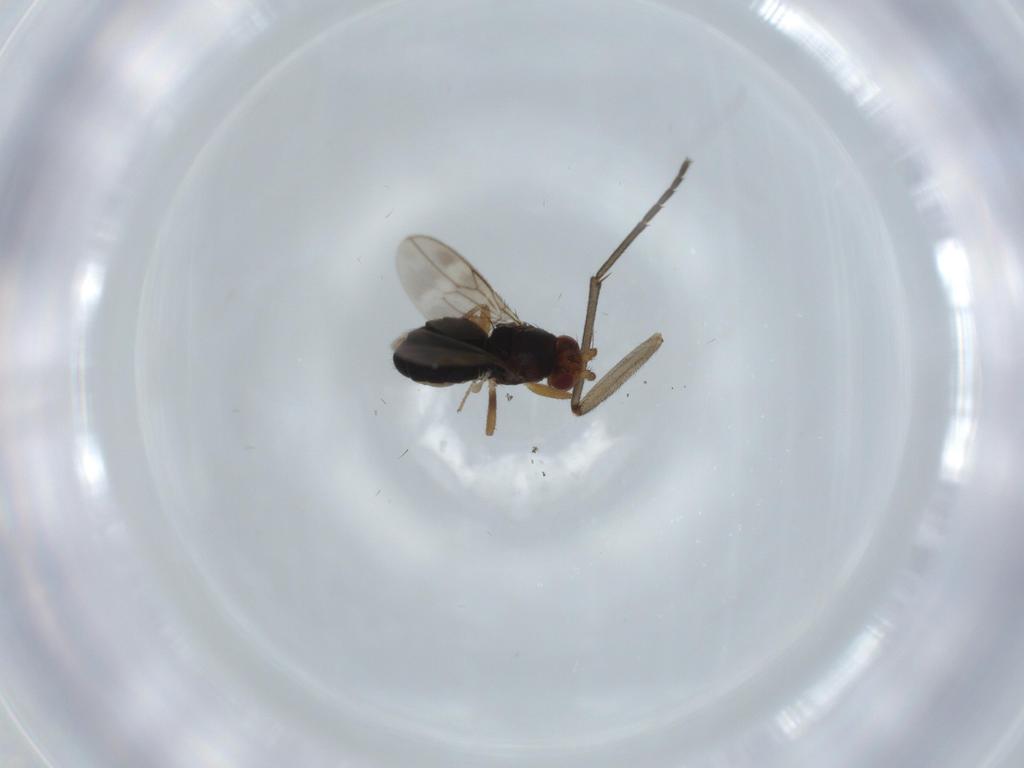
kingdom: Animalia
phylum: Arthropoda
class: Insecta
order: Diptera
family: Sphaeroceridae
